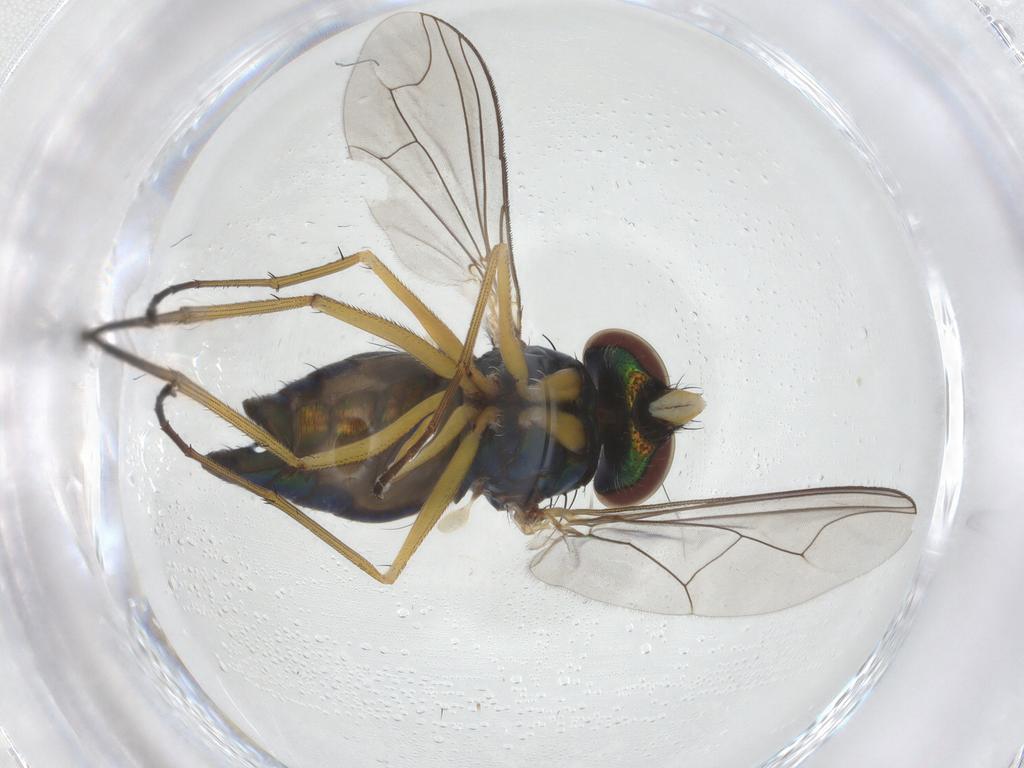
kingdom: Animalia
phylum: Arthropoda
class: Insecta
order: Diptera
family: Dolichopodidae
